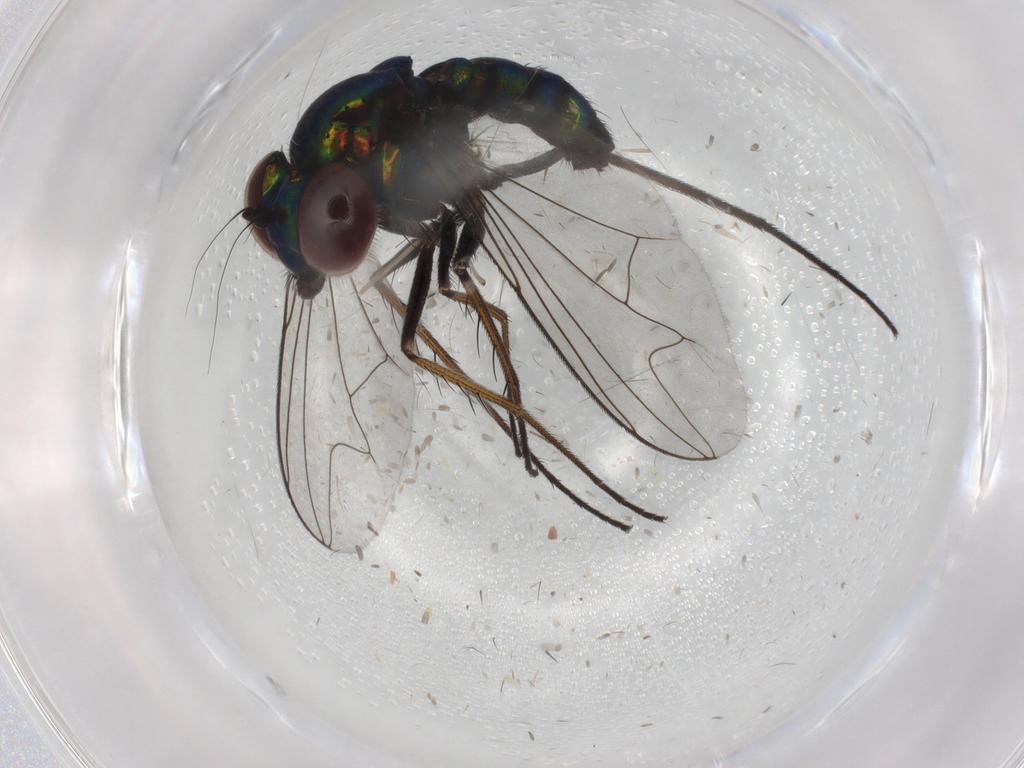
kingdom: Animalia
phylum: Arthropoda
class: Insecta
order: Diptera
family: Dolichopodidae
